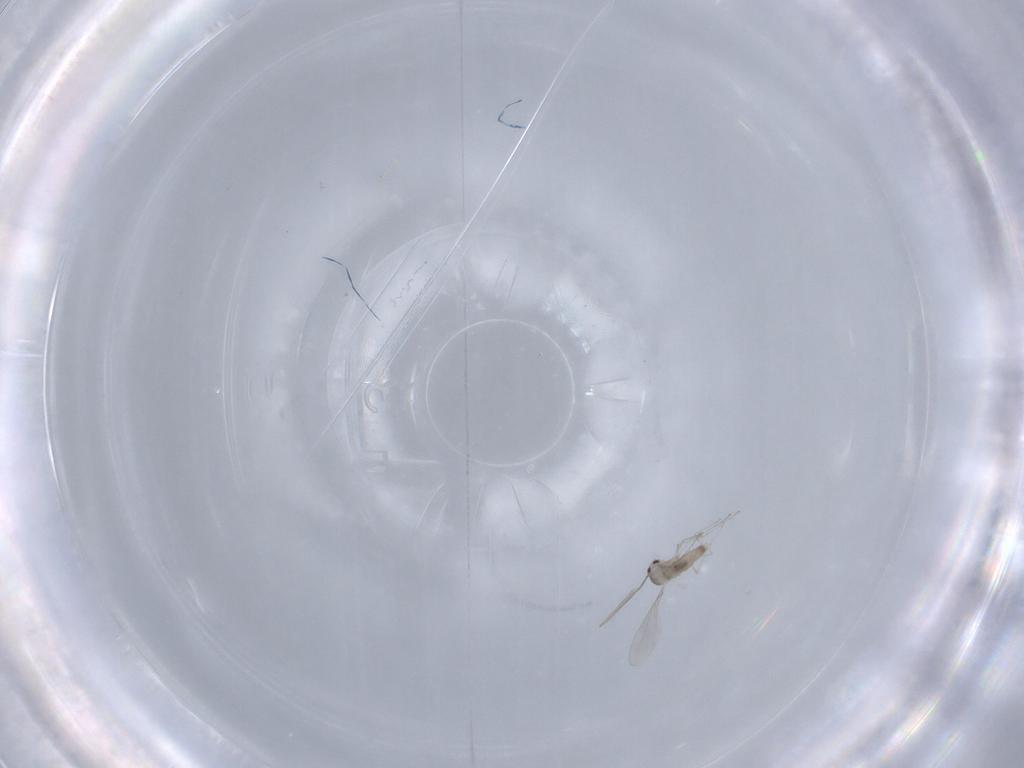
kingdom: Animalia
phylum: Arthropoda
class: Insecta
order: Diptera
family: Cecidomyiidae
